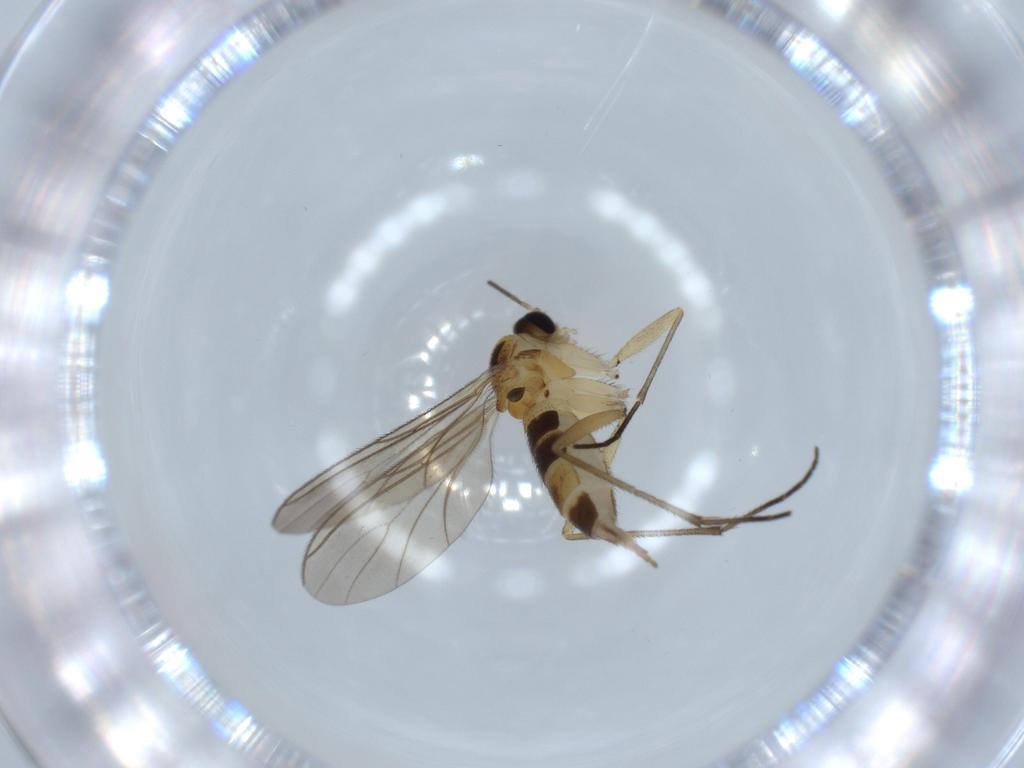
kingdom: Animalia
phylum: Arthropoda
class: Insecta
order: Diptera
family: Sciaridae
